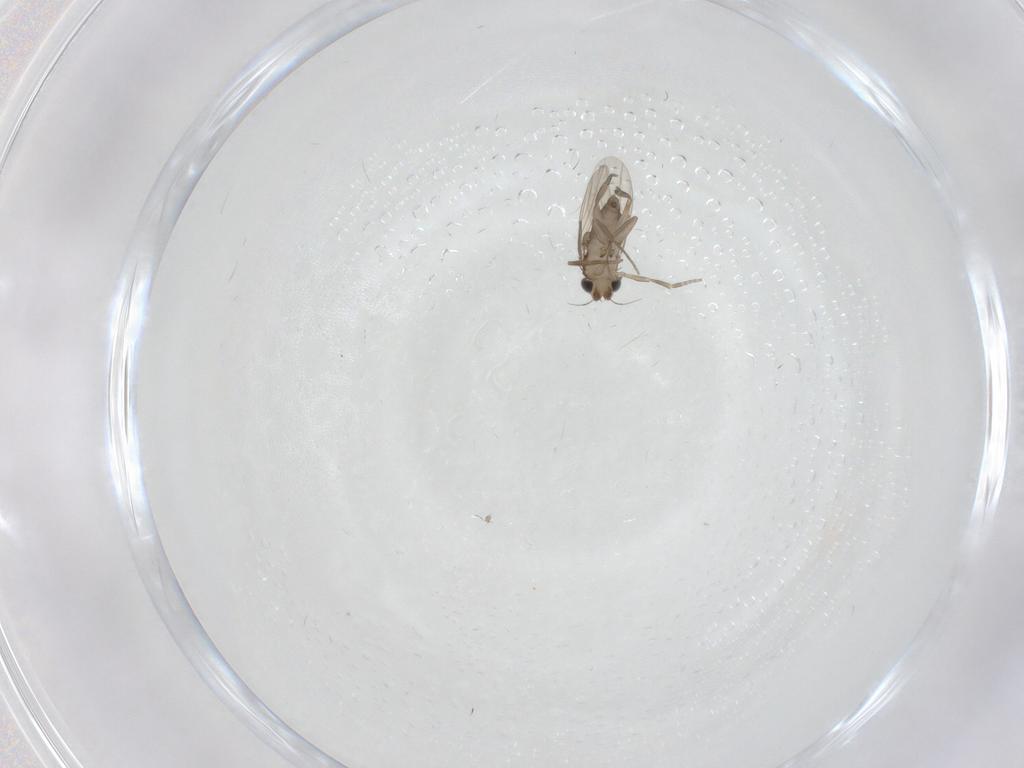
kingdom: Animalia
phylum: Arthropoda
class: Insecta
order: Diptera
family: Phoridae
